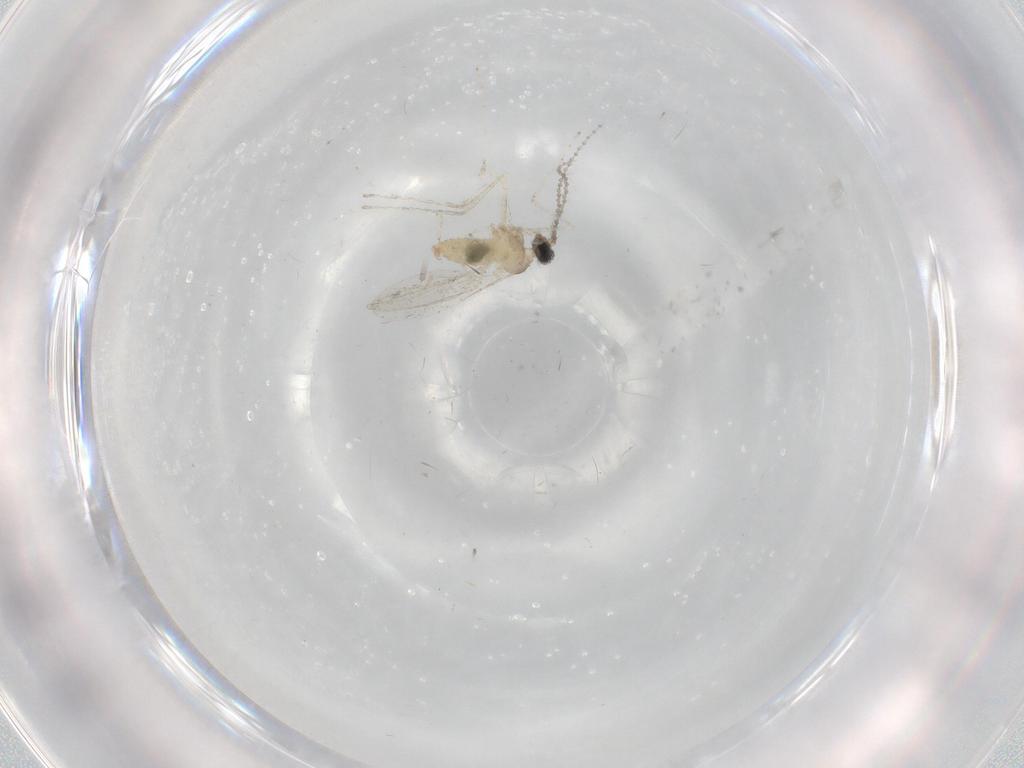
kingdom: Animalia
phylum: Arthropoda
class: Insecta
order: Diptera
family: Cecidomyiidae
